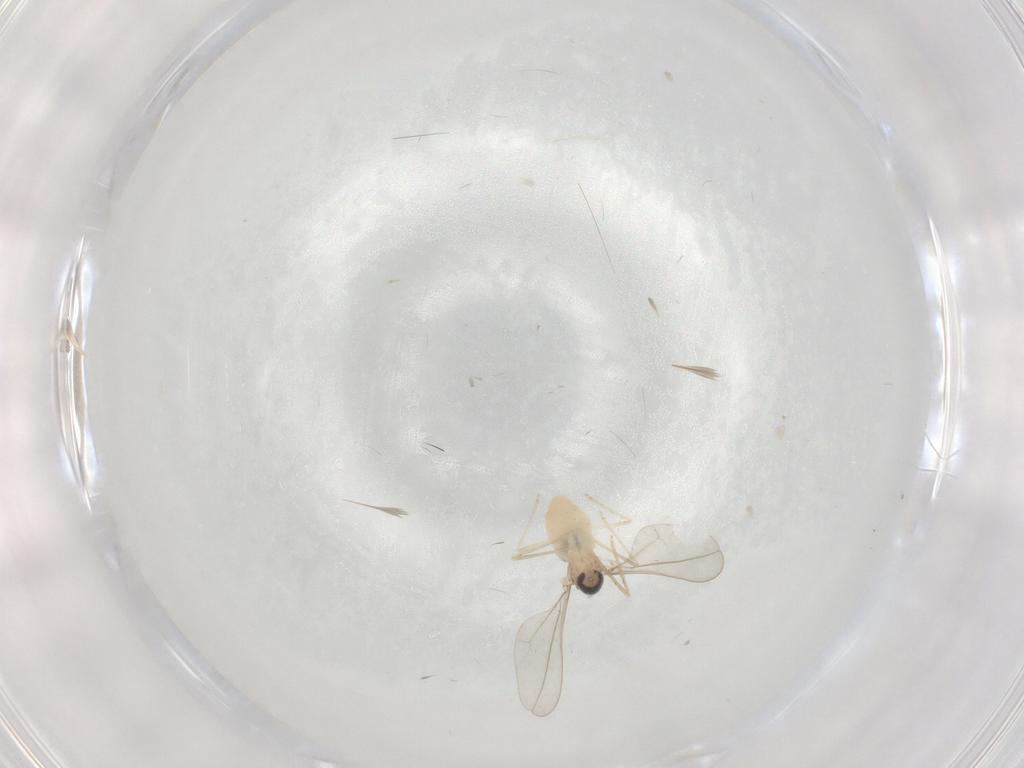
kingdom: Animalia
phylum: Arthropoda
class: Insecta
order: Diptera
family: Cecidomyiidae
